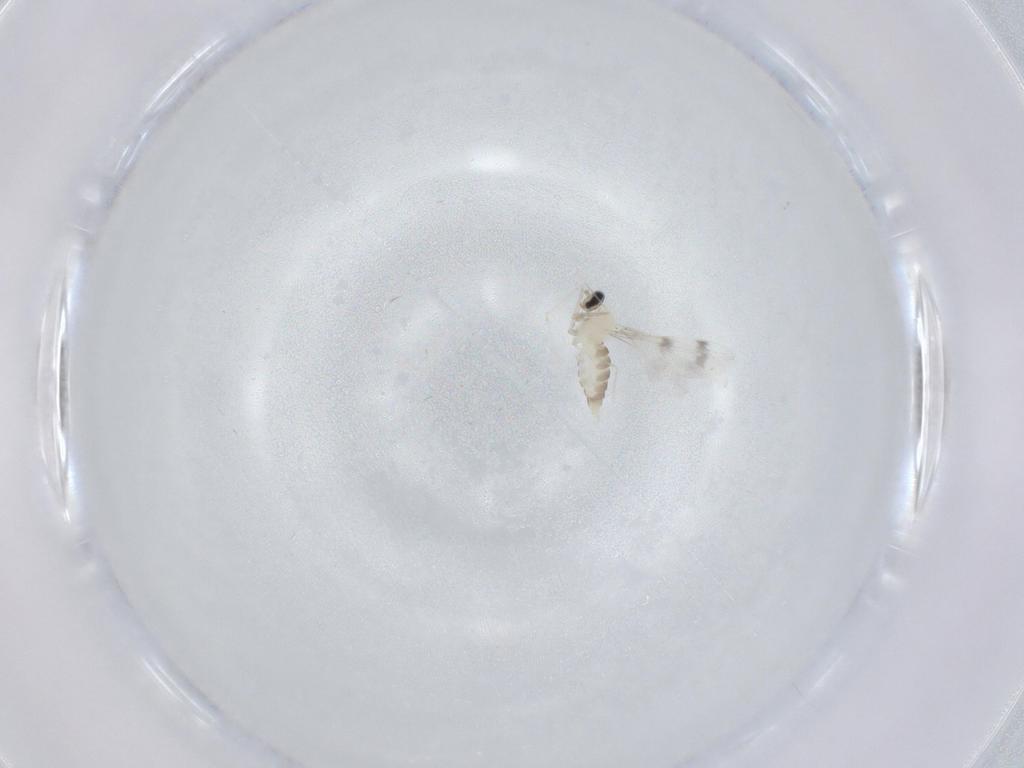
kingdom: Animalia
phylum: Arthropoda
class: Insecta
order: Diptera
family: Cecidomyiidae
